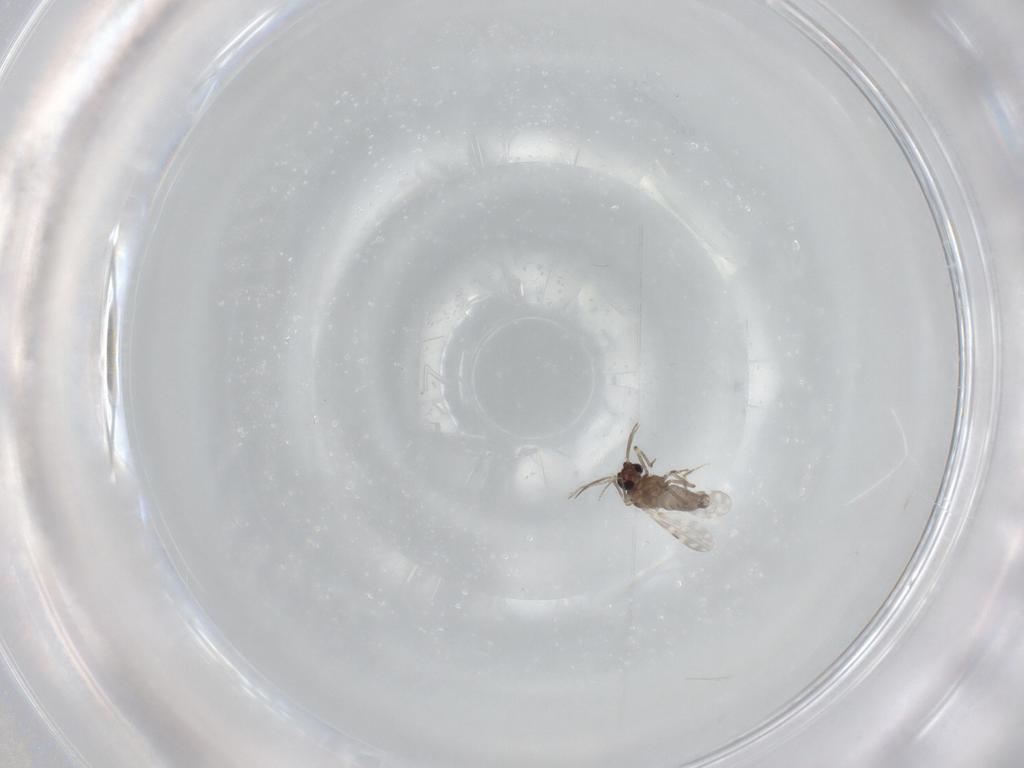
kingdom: Animalia
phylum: Arthropoda
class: Insecta
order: Diptera
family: Ceratopogonidae
